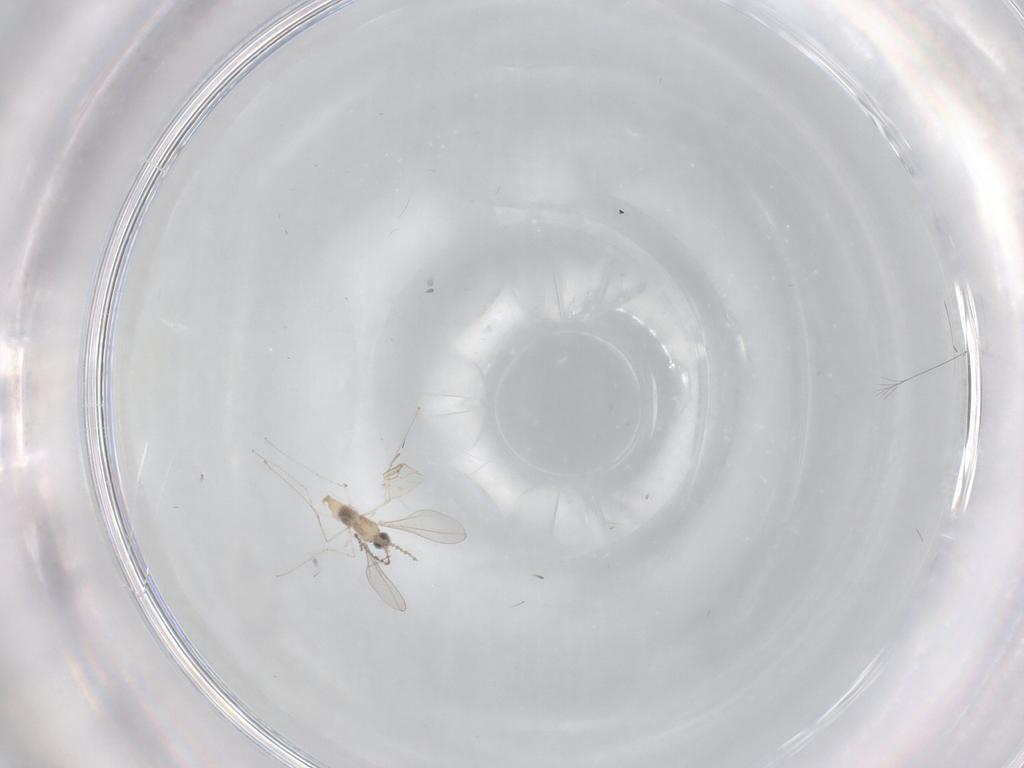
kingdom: Animalia
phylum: Arthropoda
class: Insecta
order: Diptera
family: Cecidomyiidae
